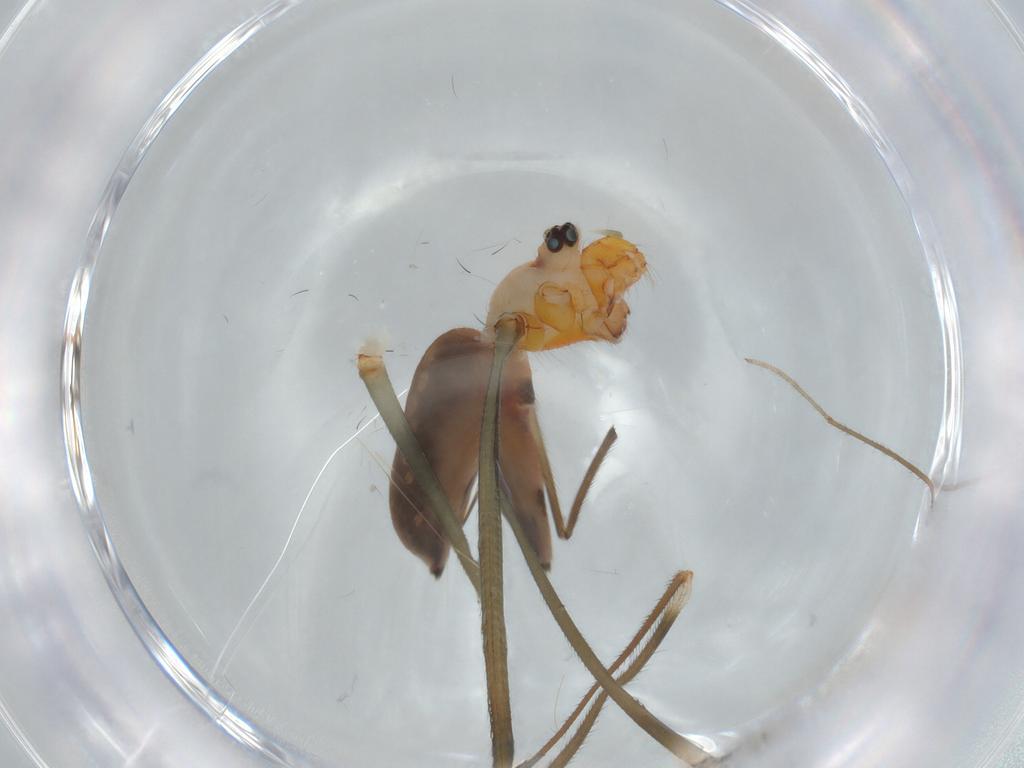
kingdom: Animalia
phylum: Arthropoda
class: Arachnida
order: Araneae
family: Pholcidae
